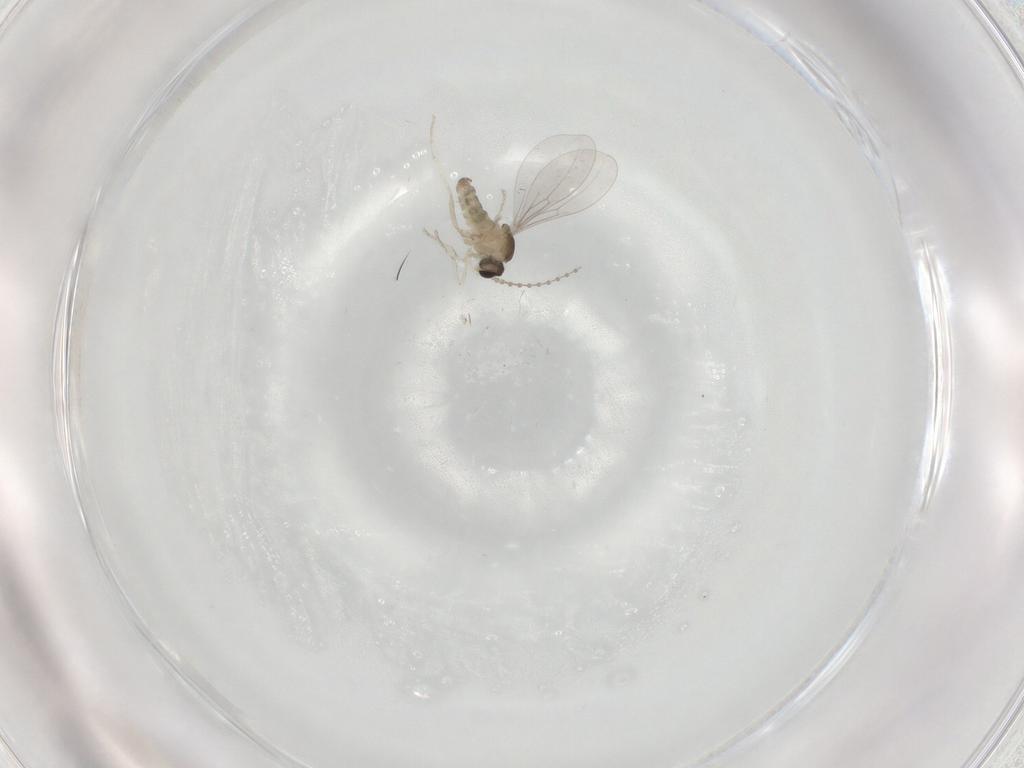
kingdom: Animalia
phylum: Arthropoda
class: Insecta
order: Diptera
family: Cecidomyiidae
